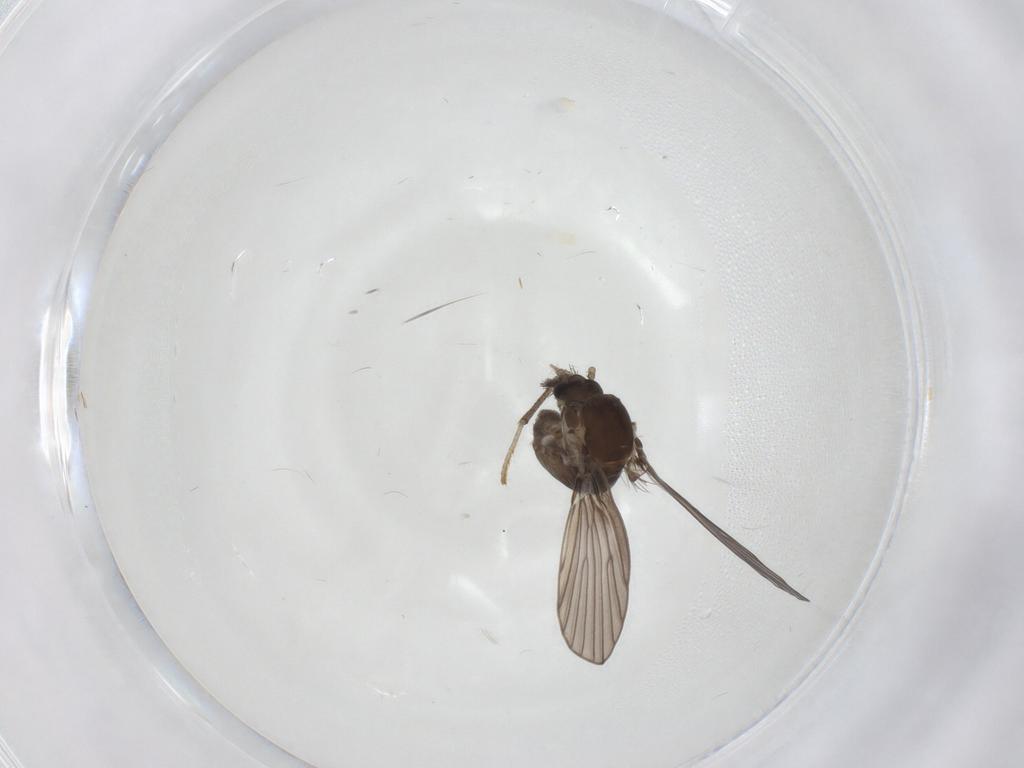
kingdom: Animalia
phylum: Arthropoda
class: Insecta
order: Diptera
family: Psychodidae
